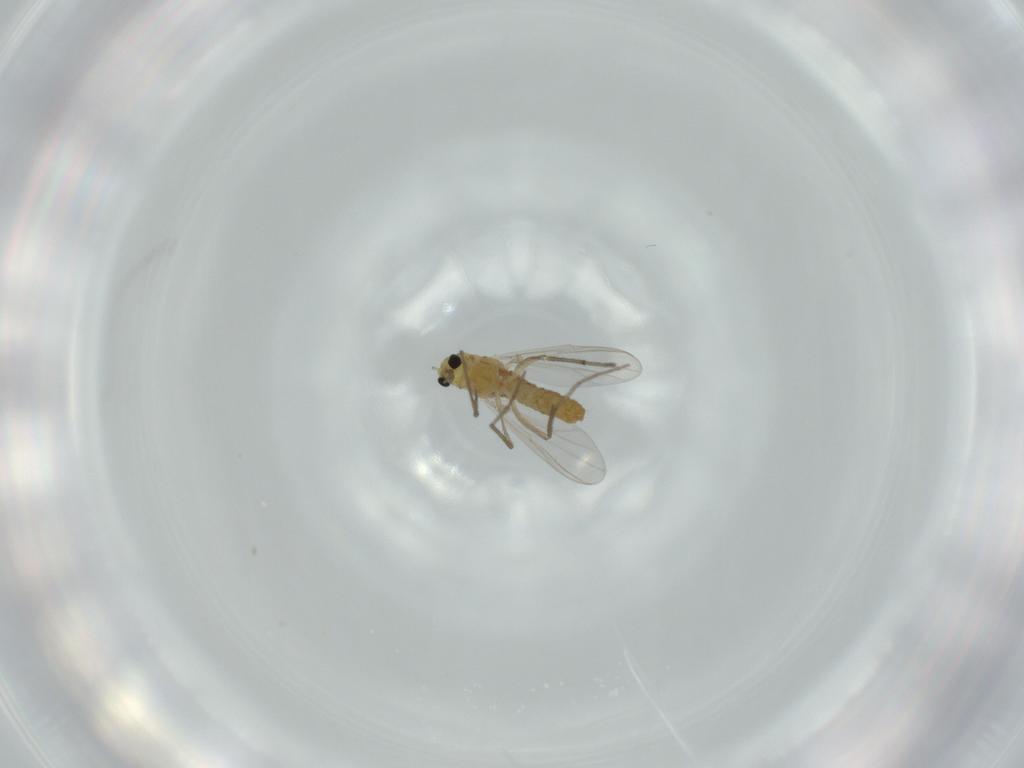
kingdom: Animalia
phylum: Arthropoda
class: Insecta
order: Diptera
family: Chironomidae
